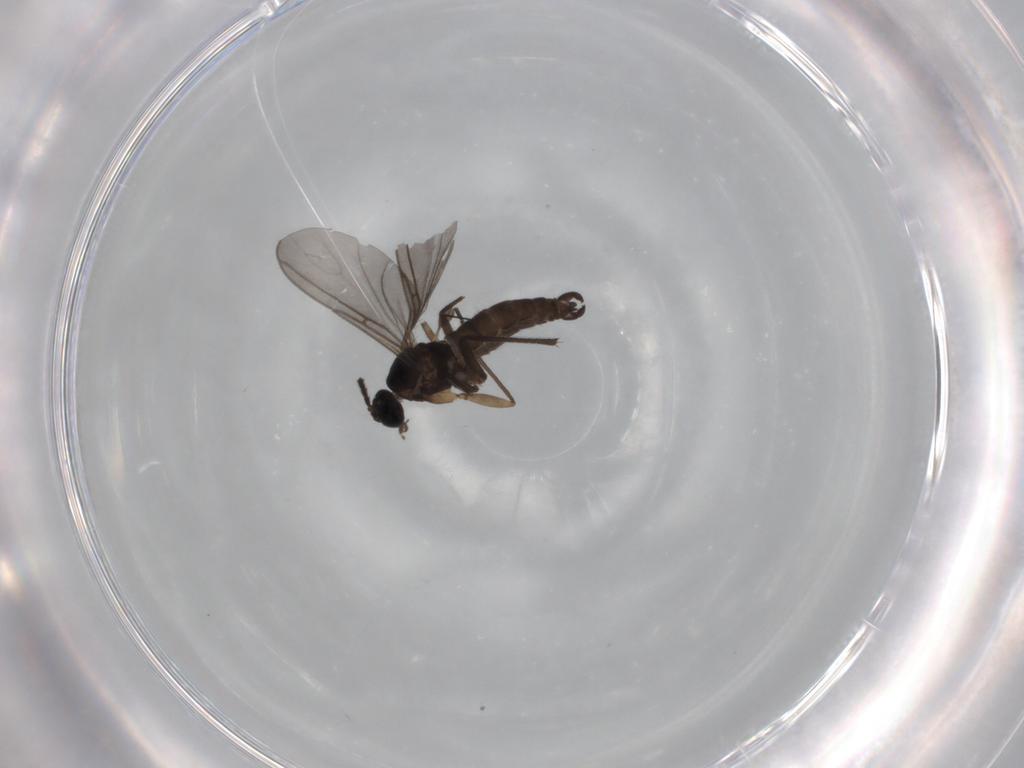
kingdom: Animalia
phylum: Arthropoda
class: Insecta
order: Diptera
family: Sciaridae
